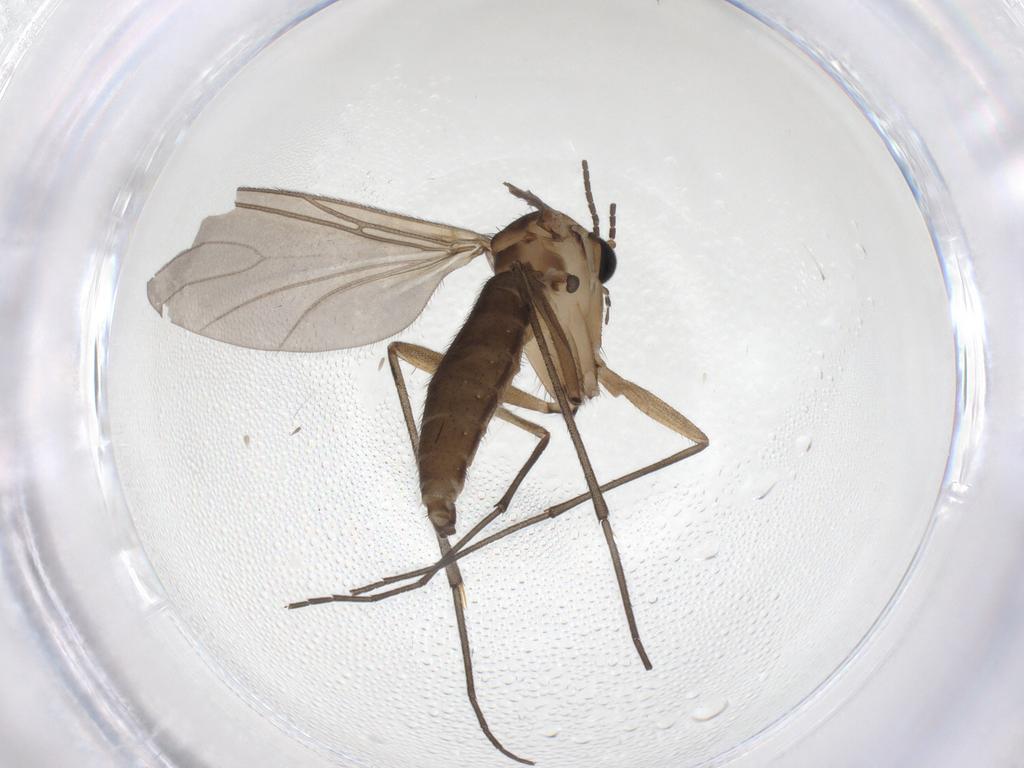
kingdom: Animalia
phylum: Arthropoda
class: Insecta
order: Diptera
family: Sciaridae
